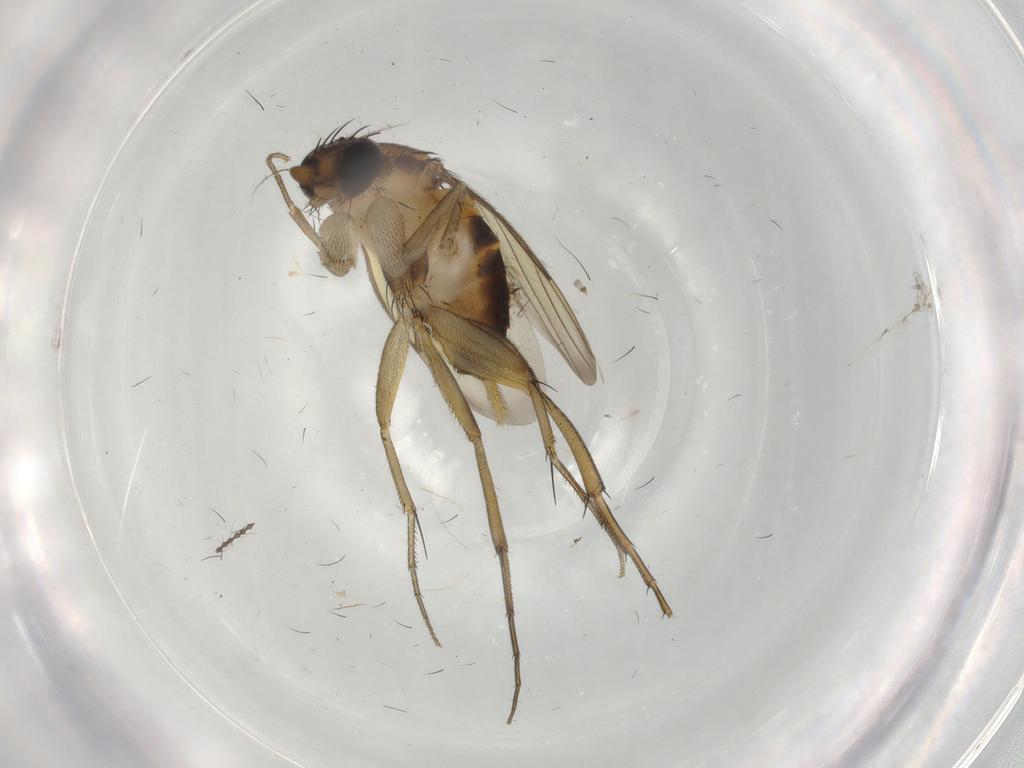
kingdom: Animalia
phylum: Arthropoda
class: Insecta
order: Diptera
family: Phoridae
